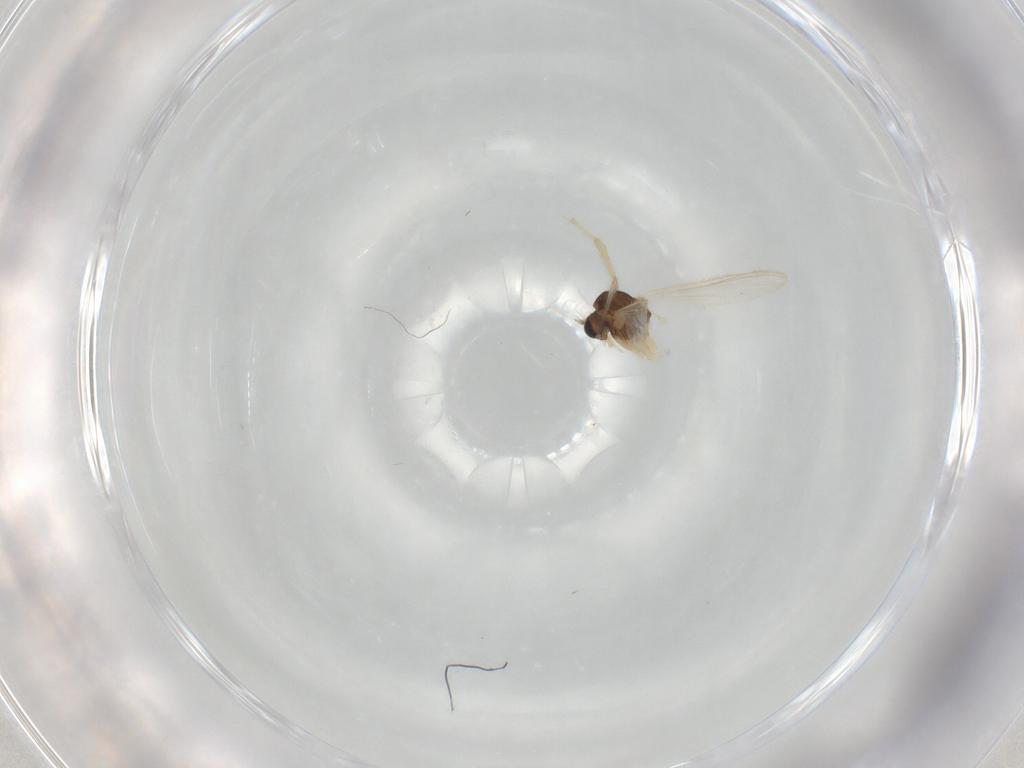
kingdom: Animalia
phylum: Arthropoda
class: Insecta
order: Diptera
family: Chironomidae
